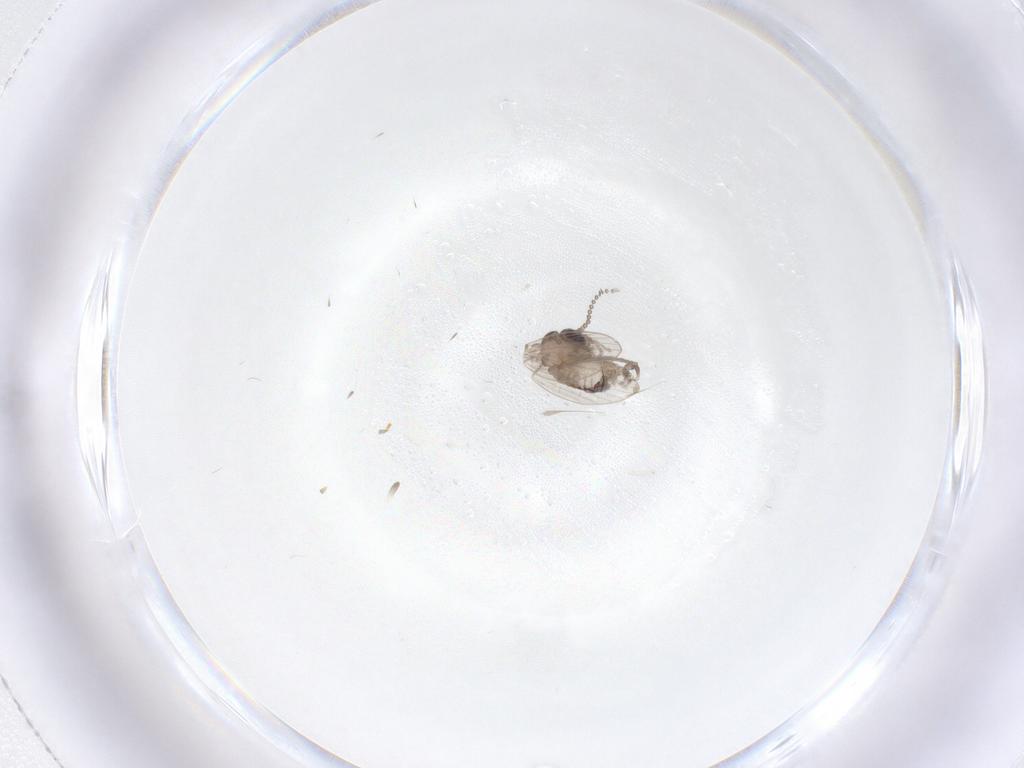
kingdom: Animalia
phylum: Arthropoda
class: Insecta
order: Diptera
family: Psychodidae
